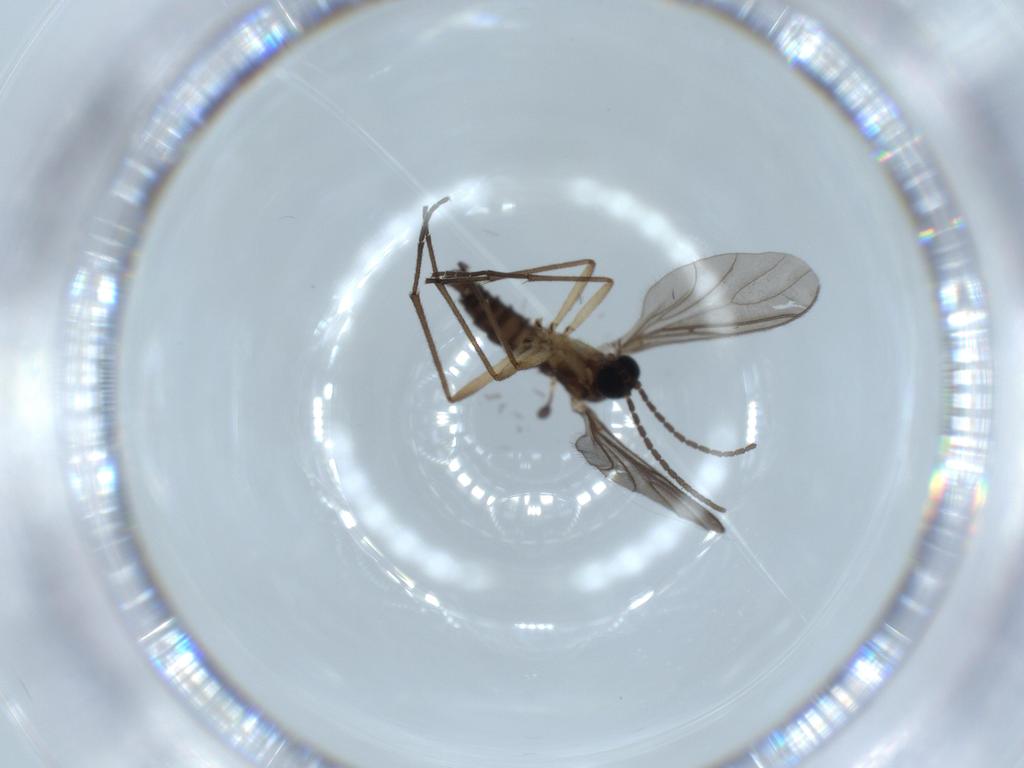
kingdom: Animalia
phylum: Arthropoda
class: Insecta
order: Diptera
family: Sciaridae
